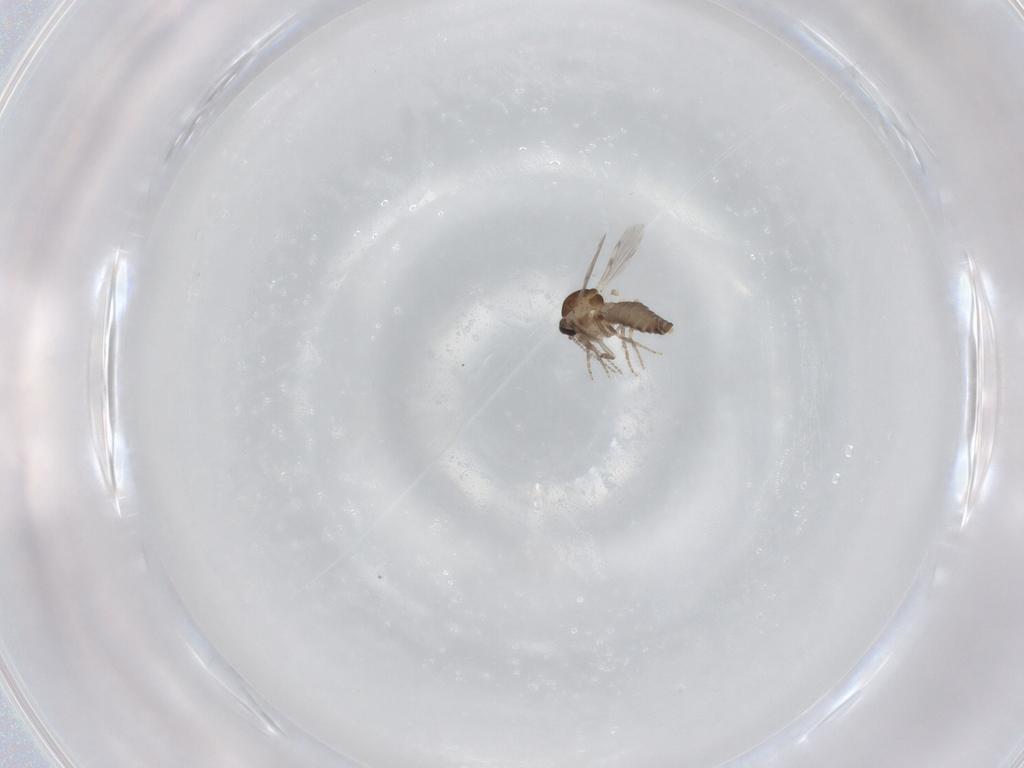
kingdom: Animalia
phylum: Arthropoda
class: Insecta
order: Diptera
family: Ceratopogonidae
